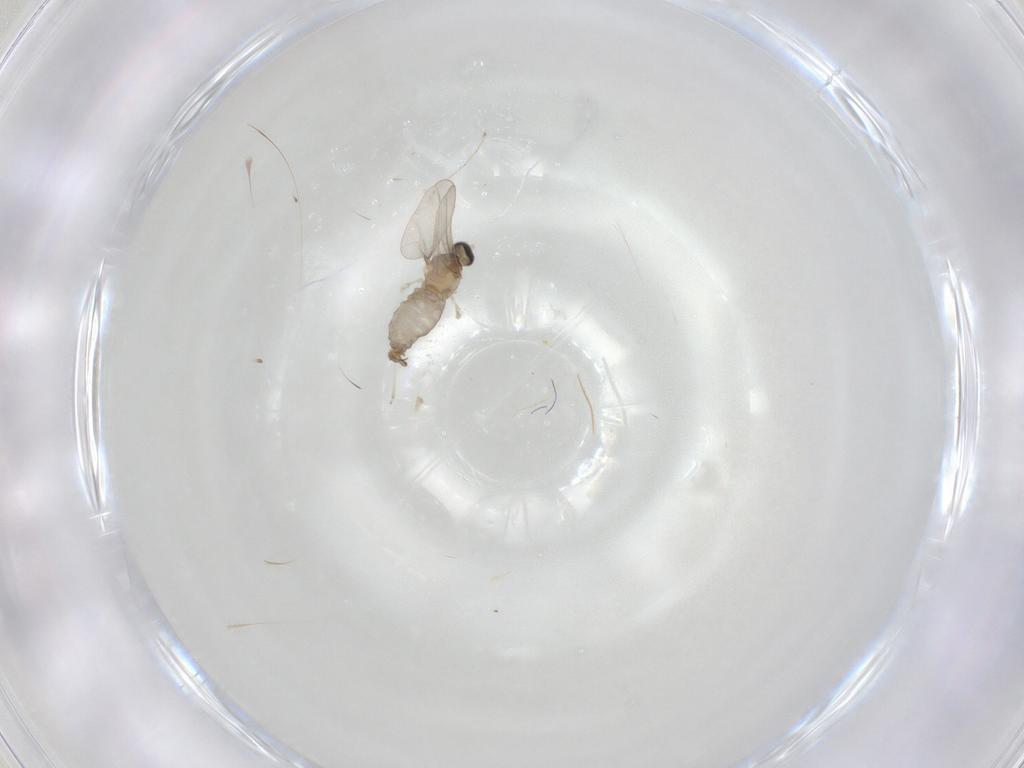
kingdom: Animalia
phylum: Arthropoda
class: Insecta
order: Diptera
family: Cecidomyiidae
